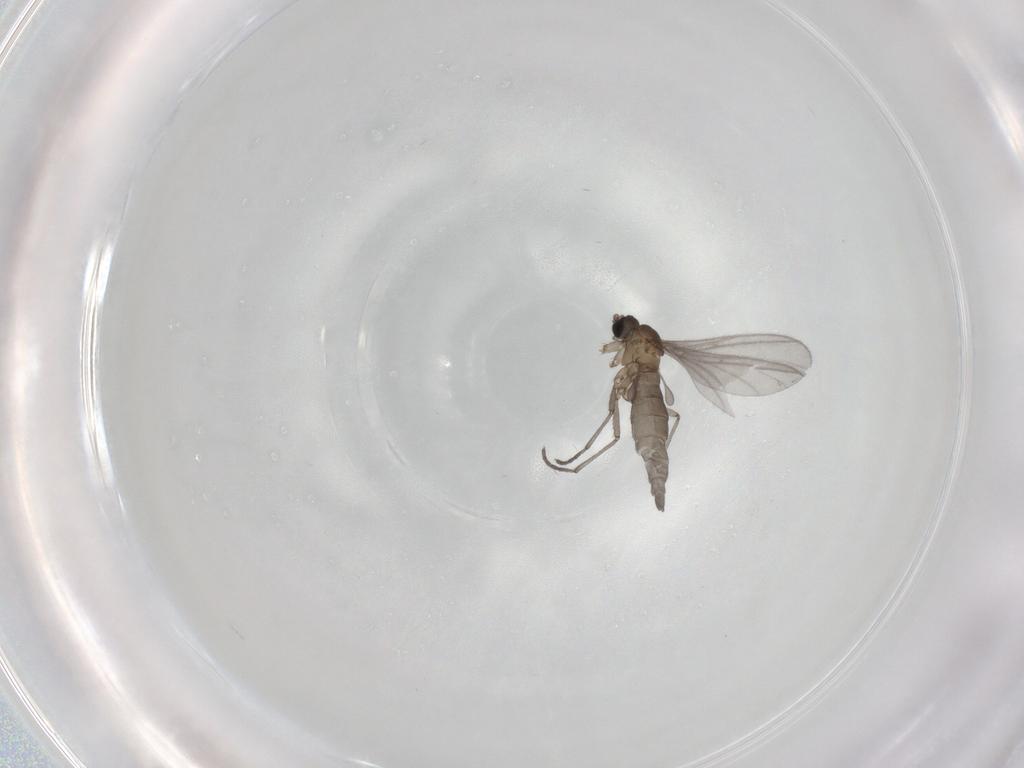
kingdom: Animalia
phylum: Arthropoda
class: Insecta
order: Diptera
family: Sciaridae
